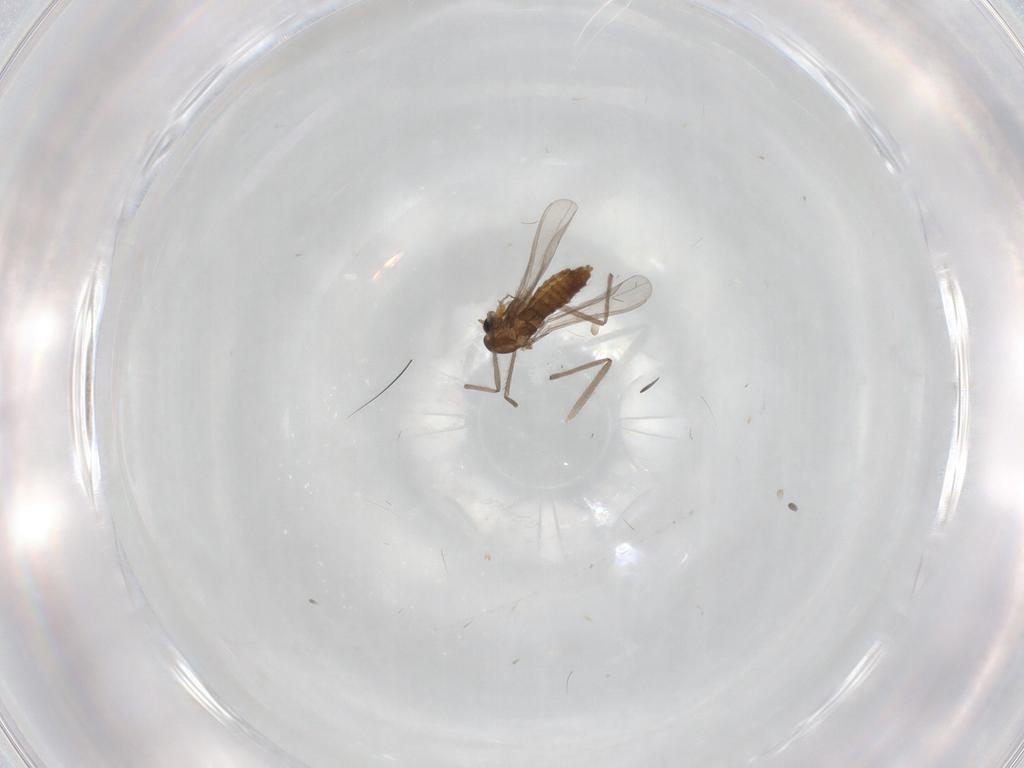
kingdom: Animalia
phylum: Arthropoda
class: Insecta
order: Diptera
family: Chironomidae
